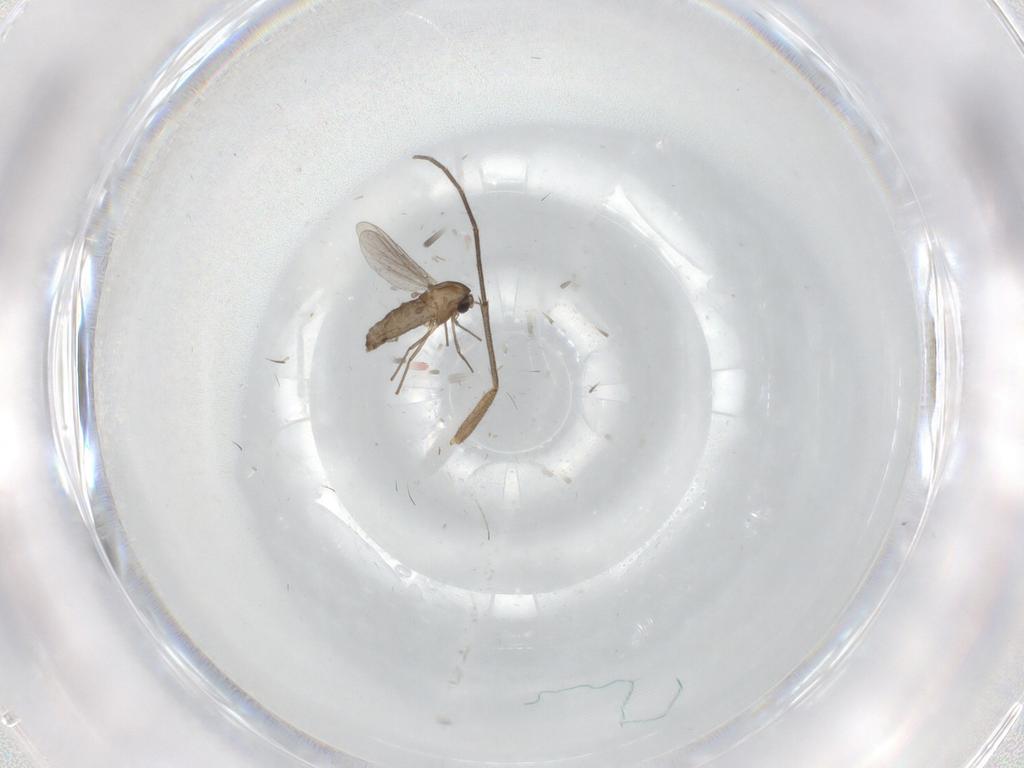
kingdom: Animalia
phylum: Arthropoda
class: Insecta
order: Diptera
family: Mycetophilidae
